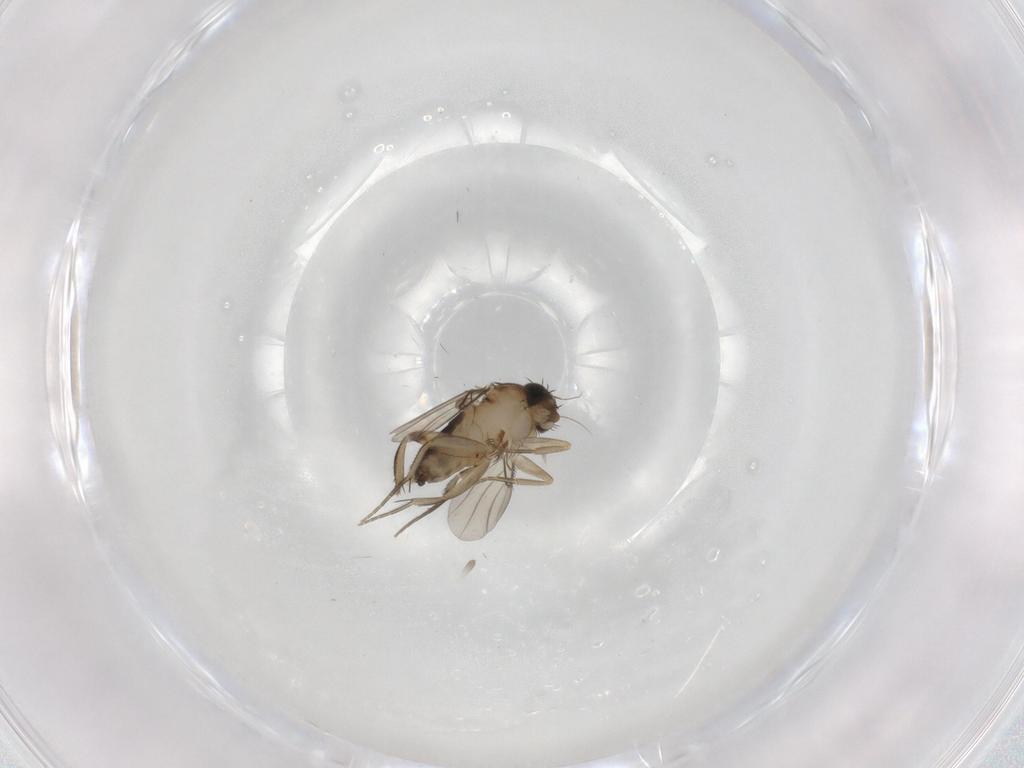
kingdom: Animalia
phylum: Arthropoda
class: Insecta
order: Diptera
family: Phoridae
